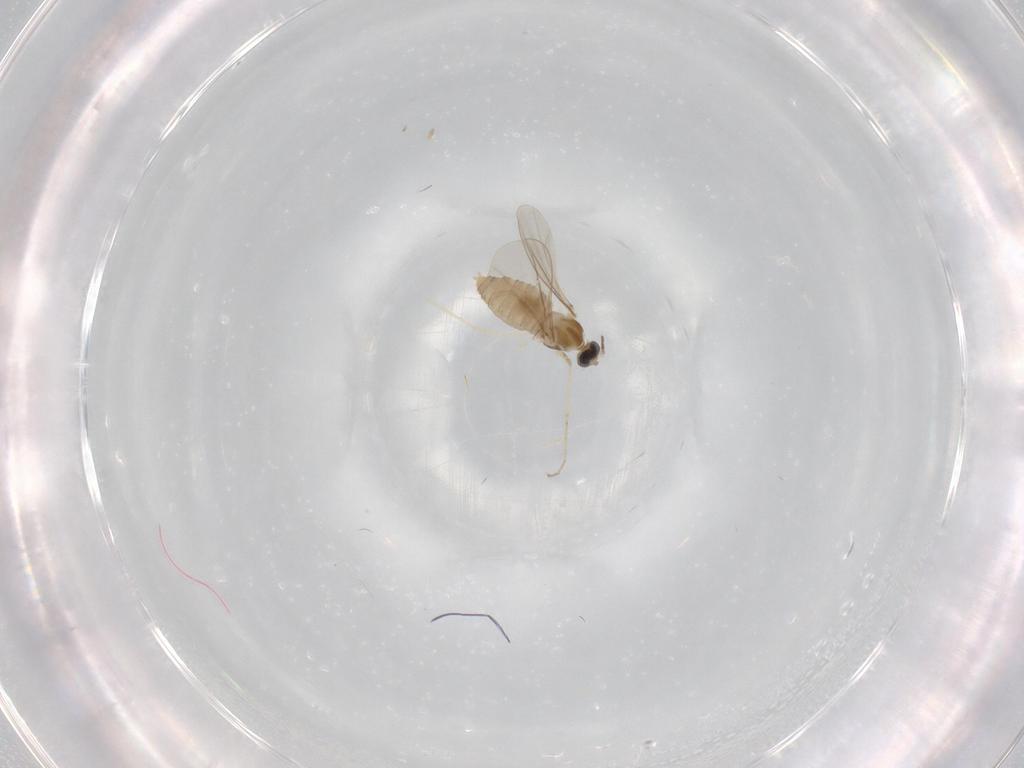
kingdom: Animalia
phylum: Arthropoda
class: Insecta
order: Diptera
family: Cecidomyiidae
